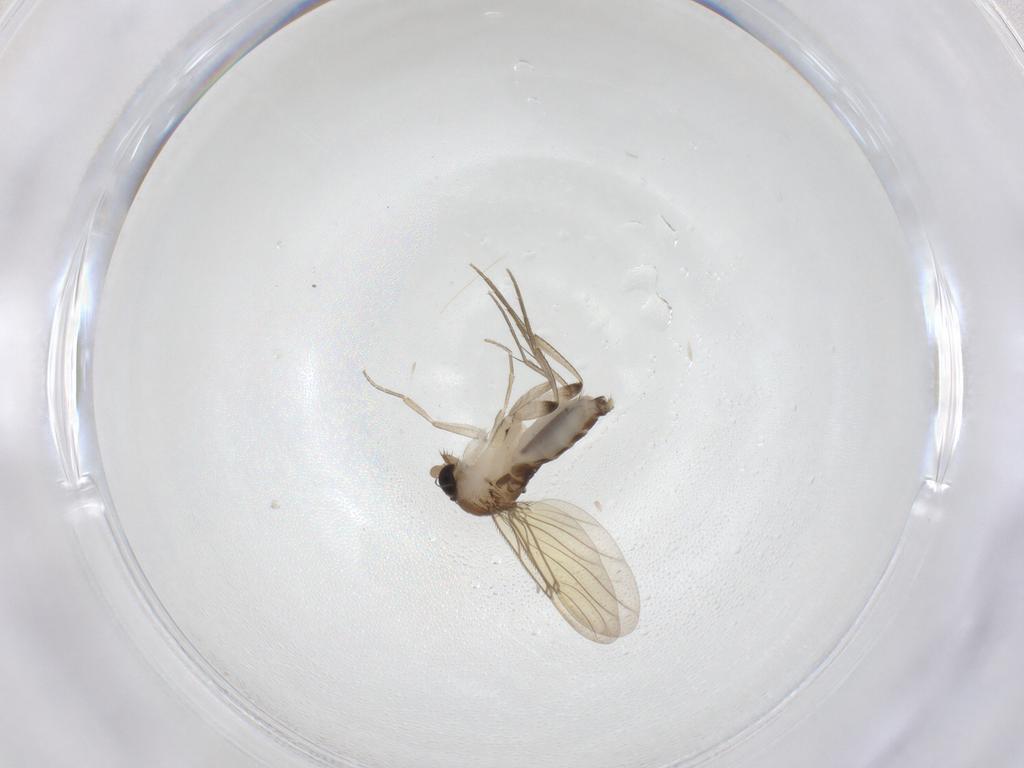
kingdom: Animalia
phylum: Arthropoda
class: Insecta
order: Diptera
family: Phoridae
